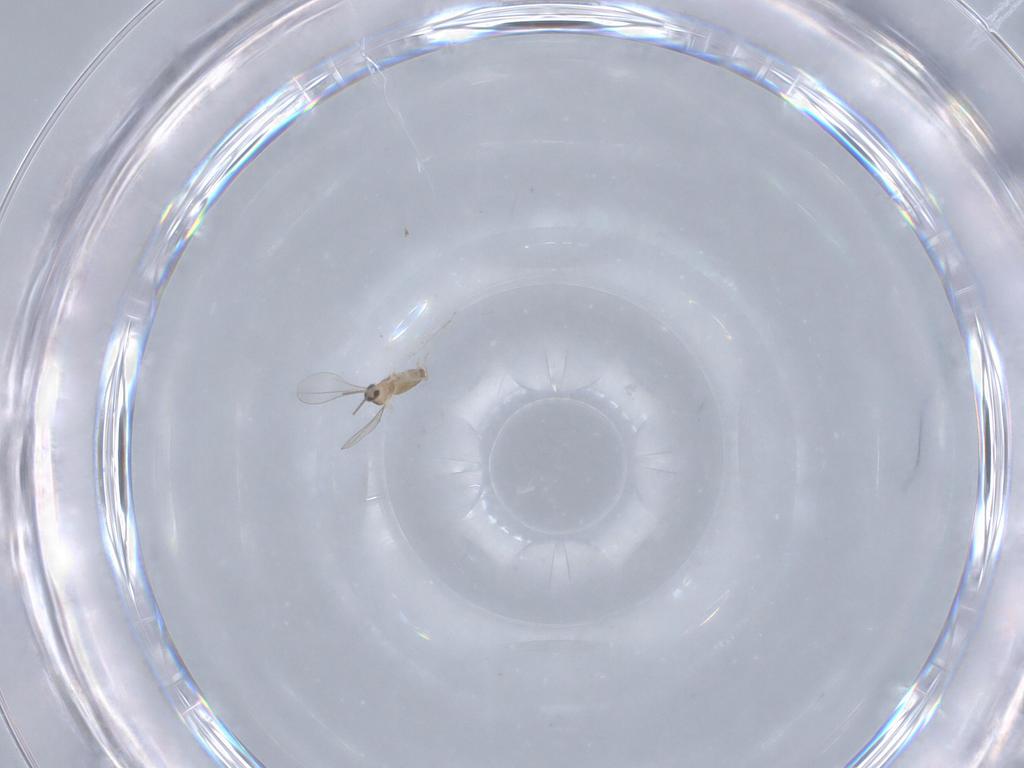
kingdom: Animalia
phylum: Arthropoda
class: Insecta
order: Diptera
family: Cecidomyiidae
